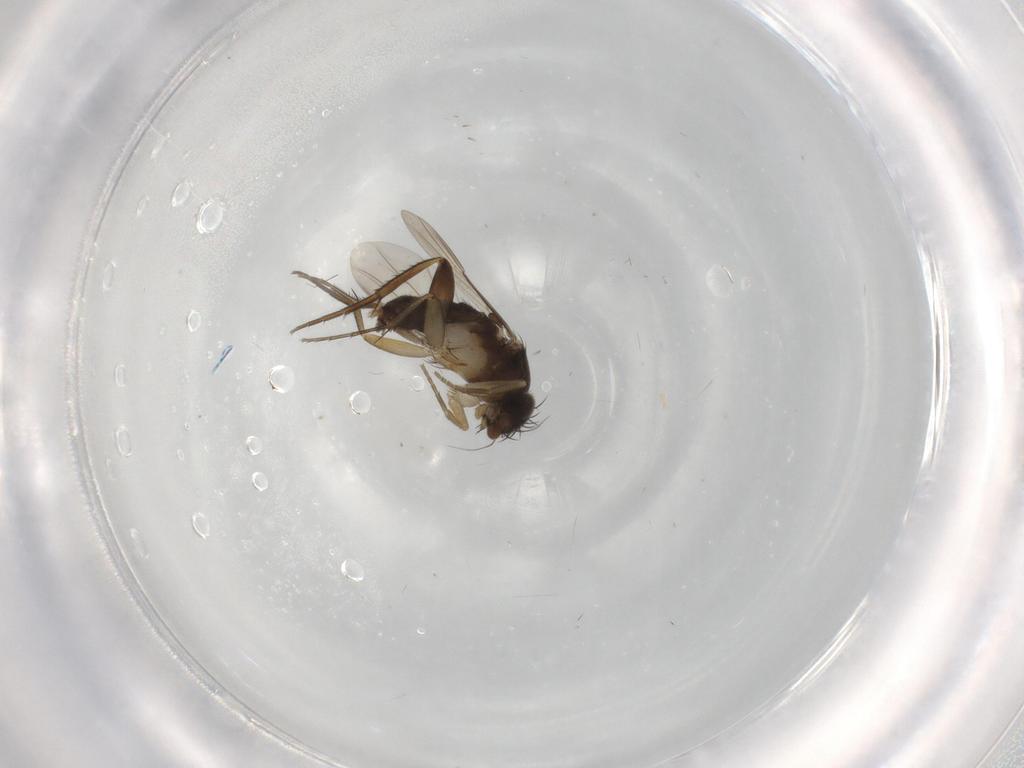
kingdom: Animalia
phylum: Arthropoda
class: Insecta
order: Diptera
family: Phoridae
